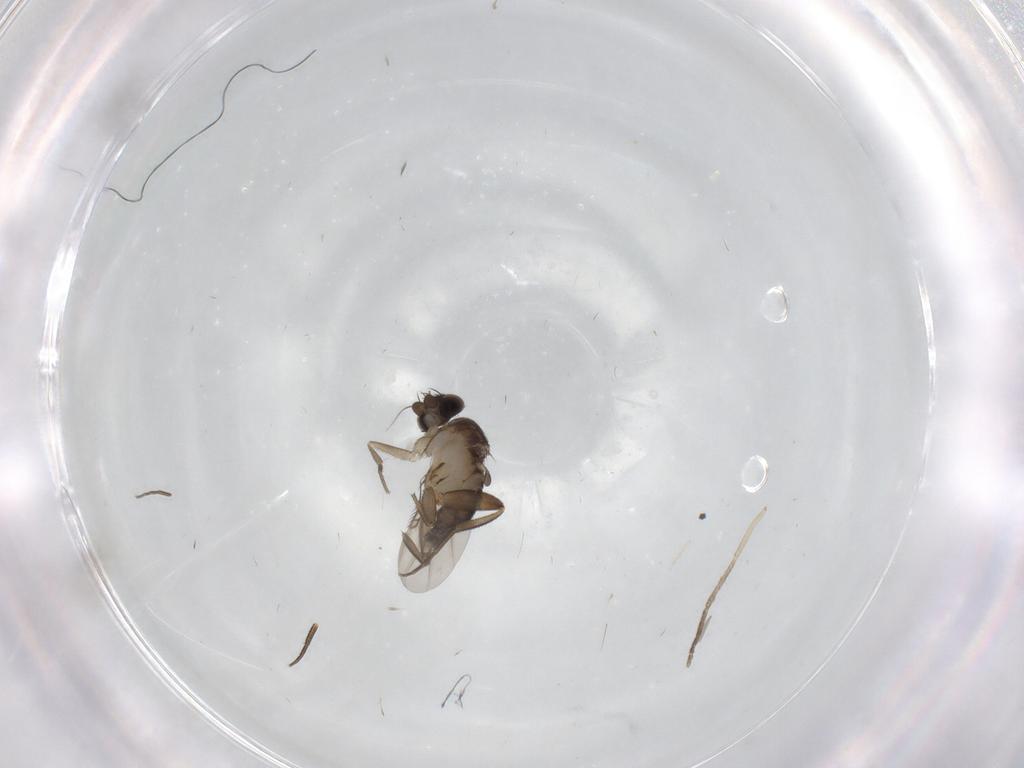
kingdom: Animalia
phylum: Arthropoda
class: Insecta
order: Diptera
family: Phoridae
